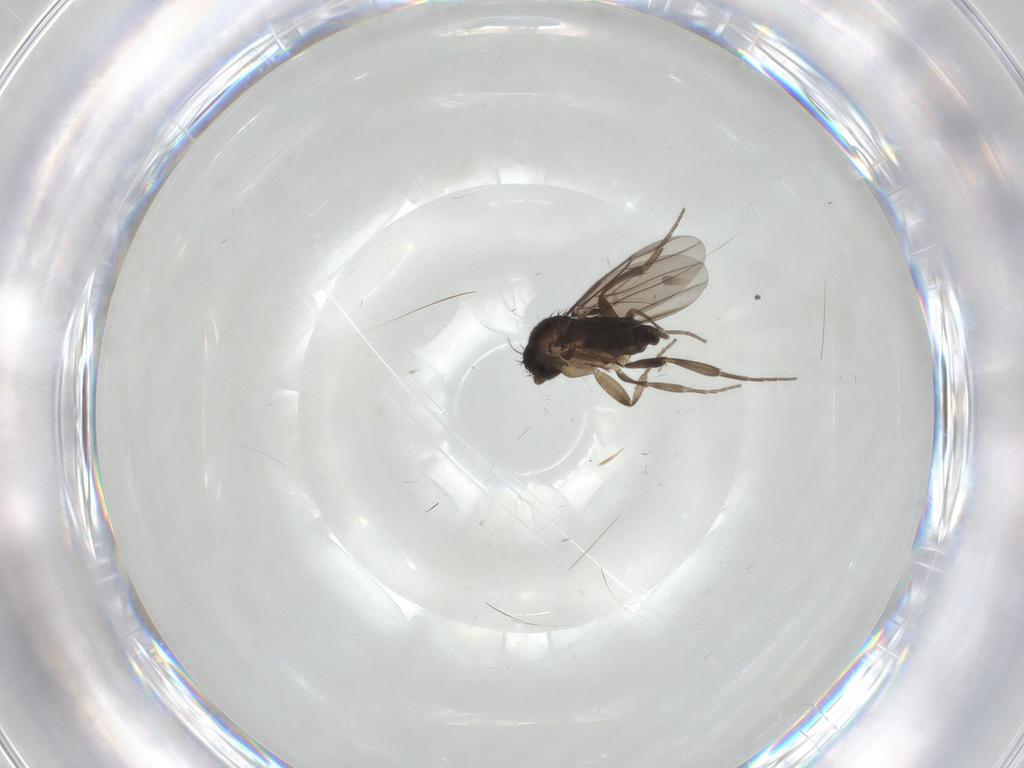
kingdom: Animalia
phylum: Arthropoda
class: Insecta
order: Diptera
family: Phoridae
